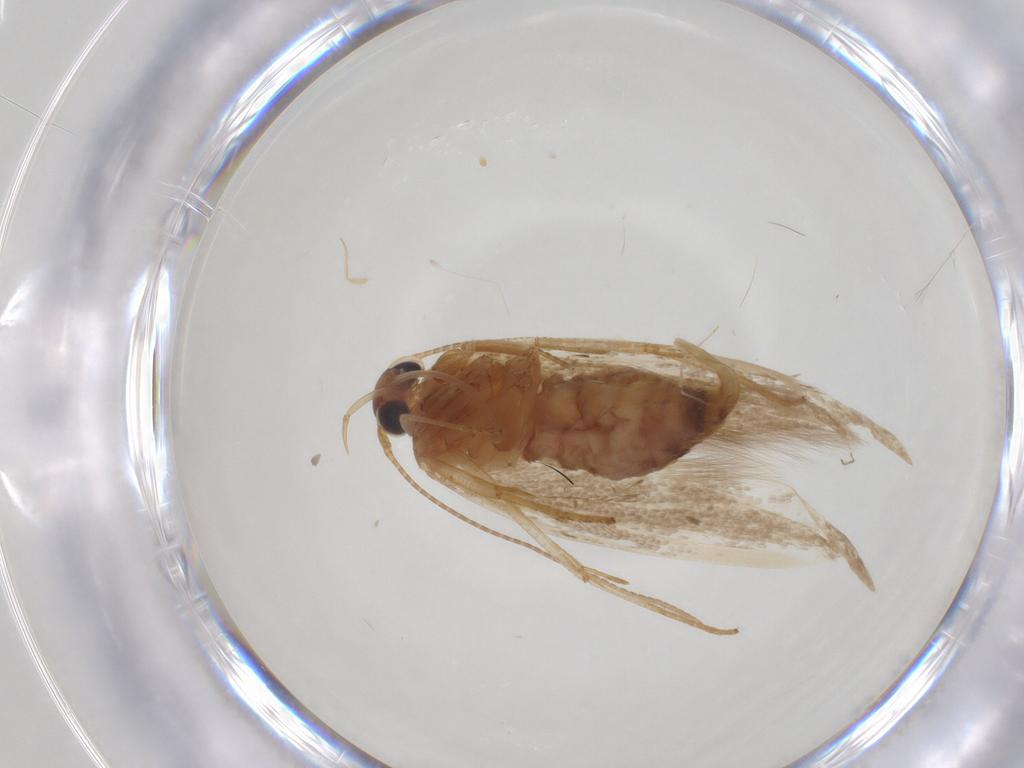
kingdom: Animalia
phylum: Arthropoda
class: Insecta
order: Lepidoptera
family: Blastobasidae
